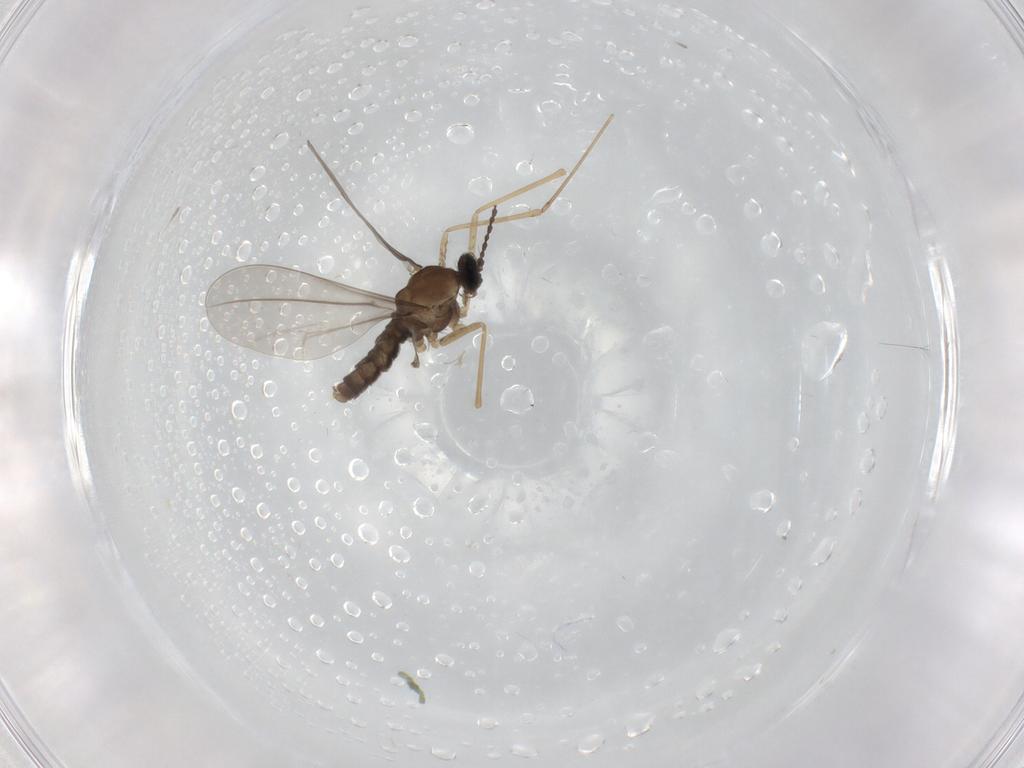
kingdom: Animalia
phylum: Arthropoda
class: Insecta
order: Diptera
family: Cecidomyiidae
